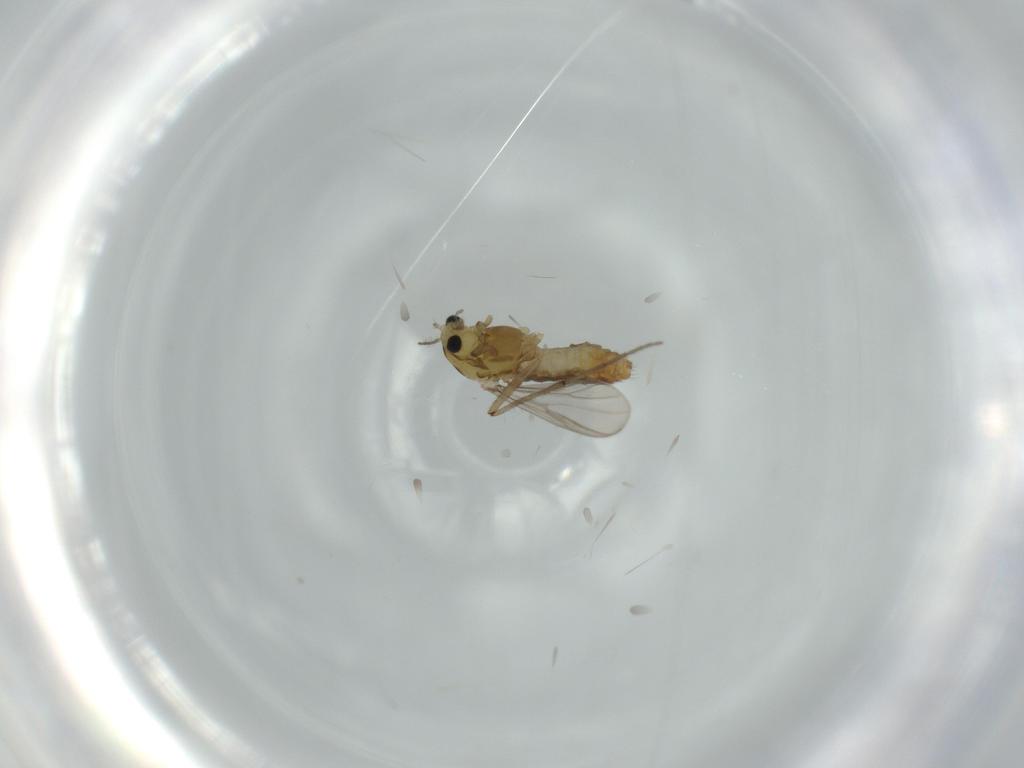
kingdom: Animalia
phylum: Arthropoda
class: Insecta
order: Diptera
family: Chironomidae
